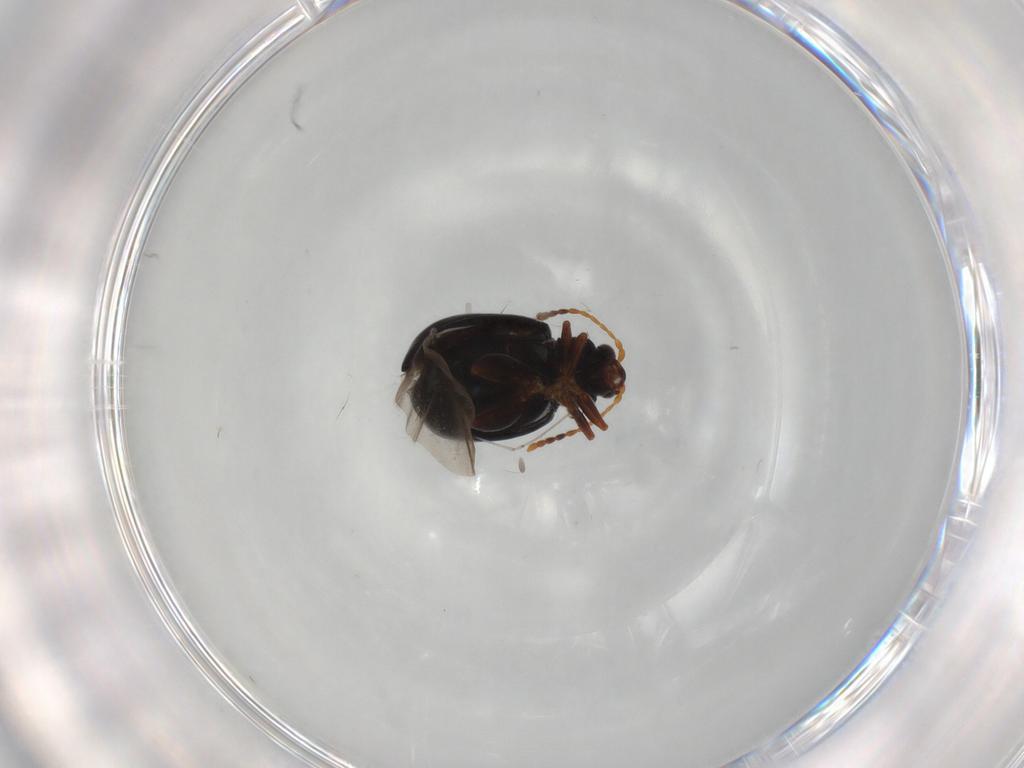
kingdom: Animalia
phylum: Arthropoda
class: Insecta
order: Coleoptera
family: Chrysomelidae
